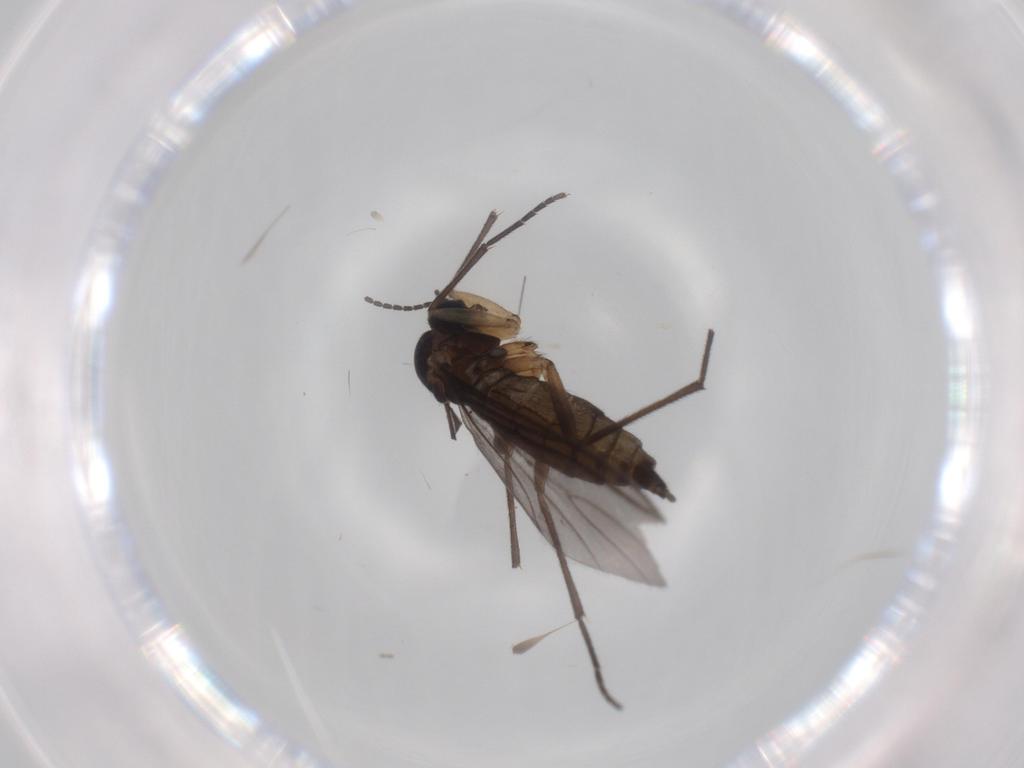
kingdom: Animalia
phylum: Arthropoda
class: Insecta
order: Diptera
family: Sciaridae
